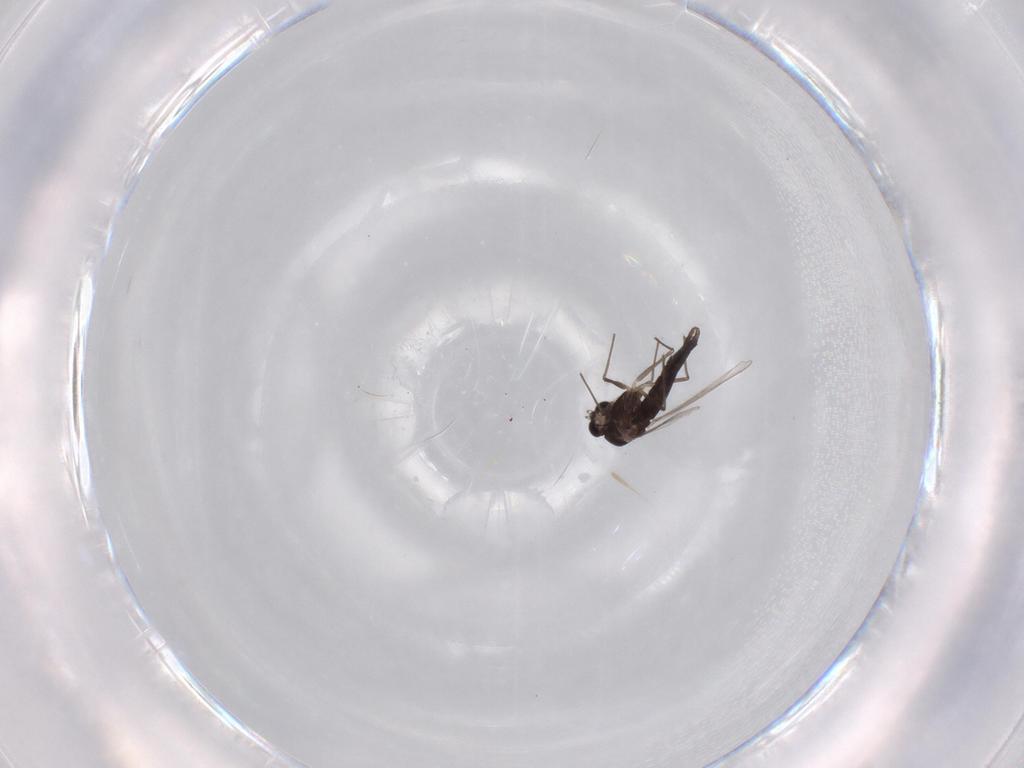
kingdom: Animalia
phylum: Arthropoda
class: Insecta
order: Diptera
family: Chironomidae
